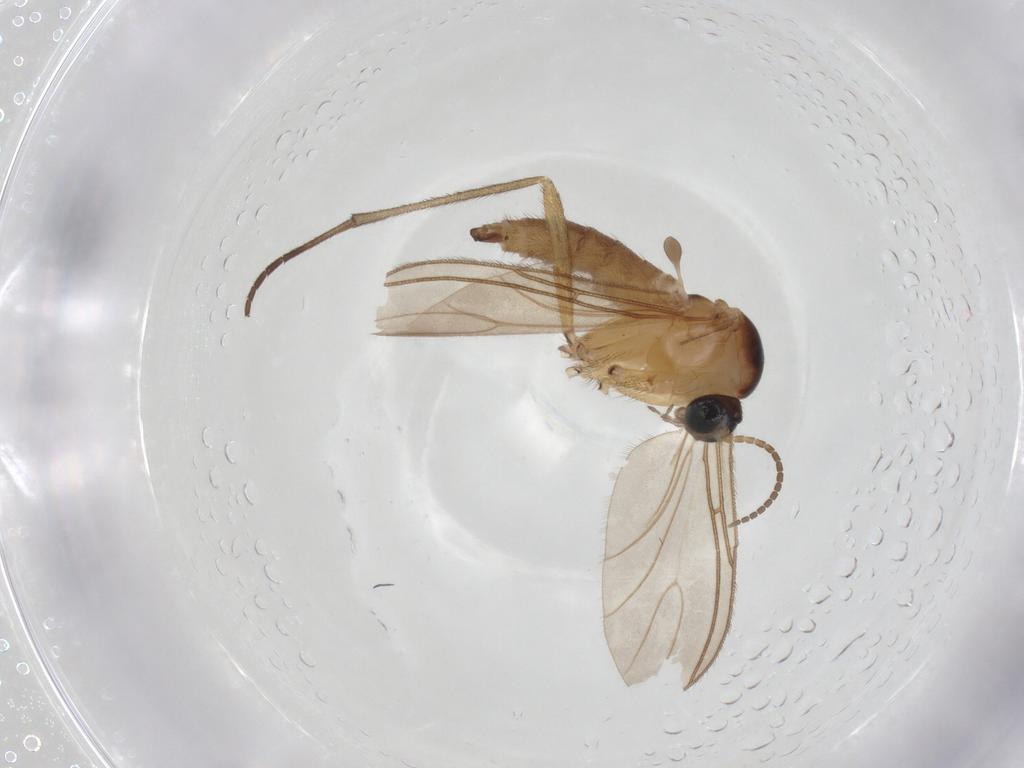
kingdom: Animalia
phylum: Arthropoda
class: Insecta
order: Diptera
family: Sciaridae
